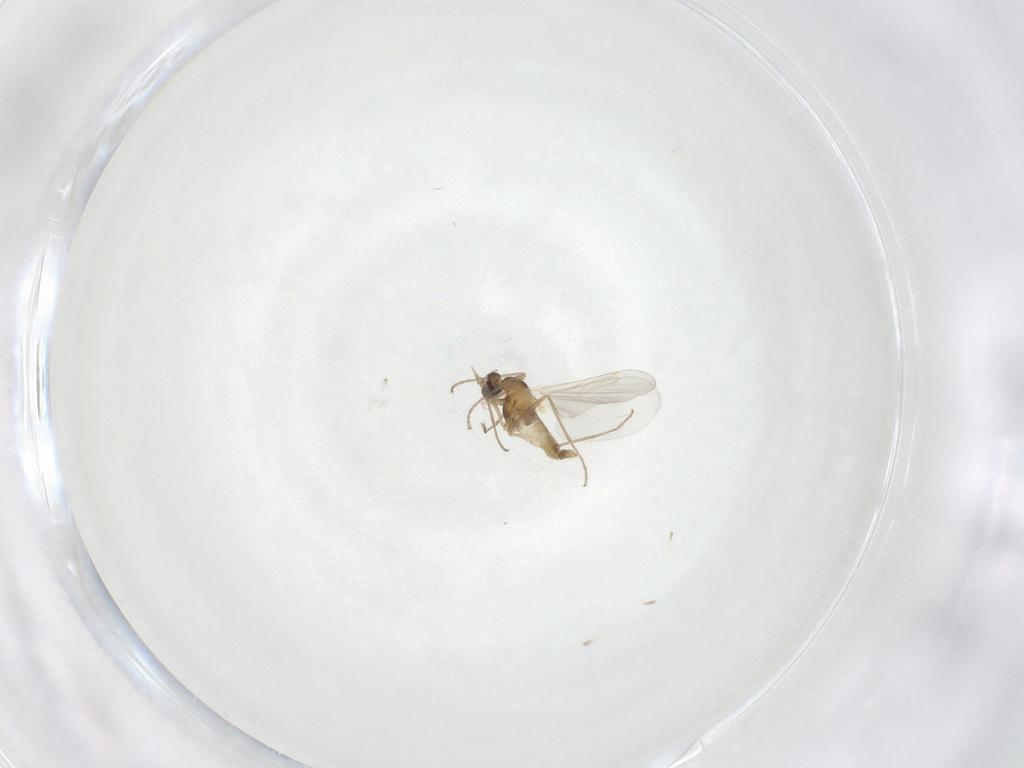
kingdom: Animalia
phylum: Arthropoda
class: Insecta
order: Diptera
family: Cecidomyiidae
